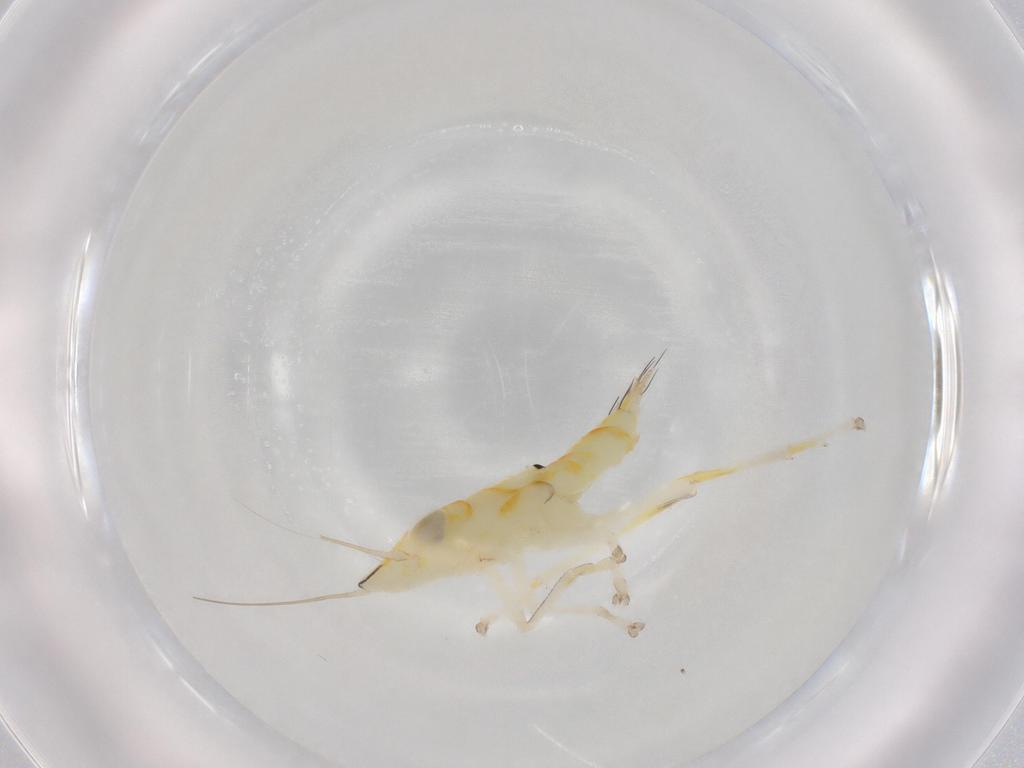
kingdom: Animalia
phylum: Arthropoda
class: Insecta
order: Hemiptera
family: Cicadellidae
